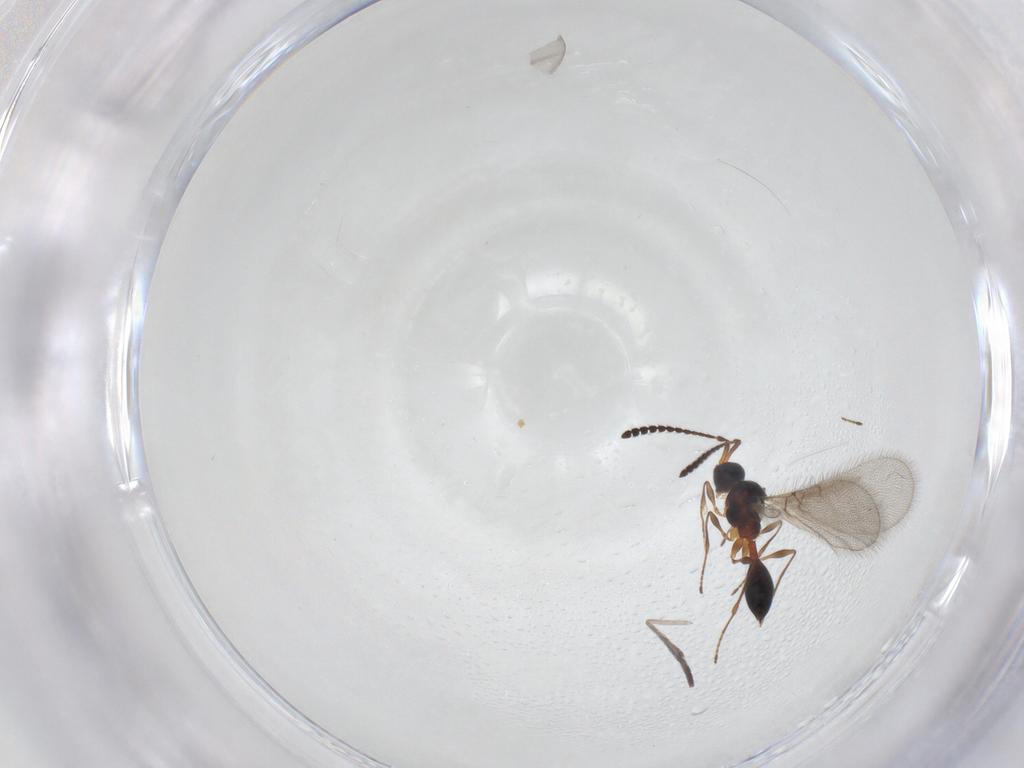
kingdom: Animalia
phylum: Arthropoda
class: Insecta
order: Hymenoptera
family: Diapriidae
